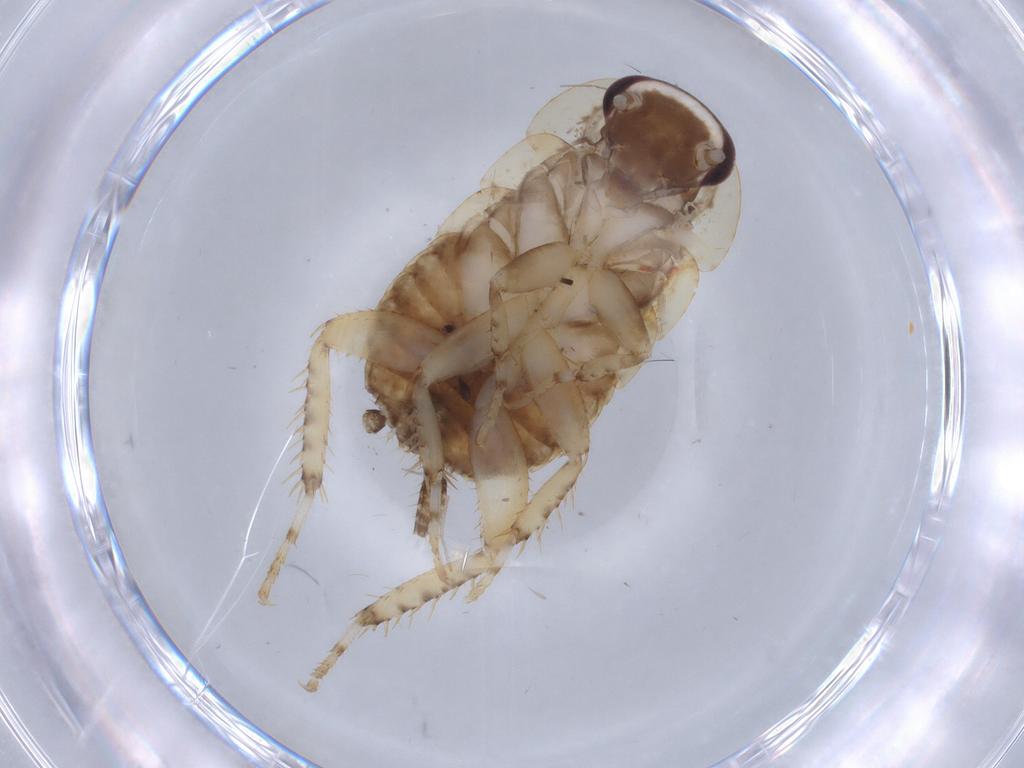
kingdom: Animalia
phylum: Arthropoda
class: Insecta
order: Blattodea
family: Ectobiidae
